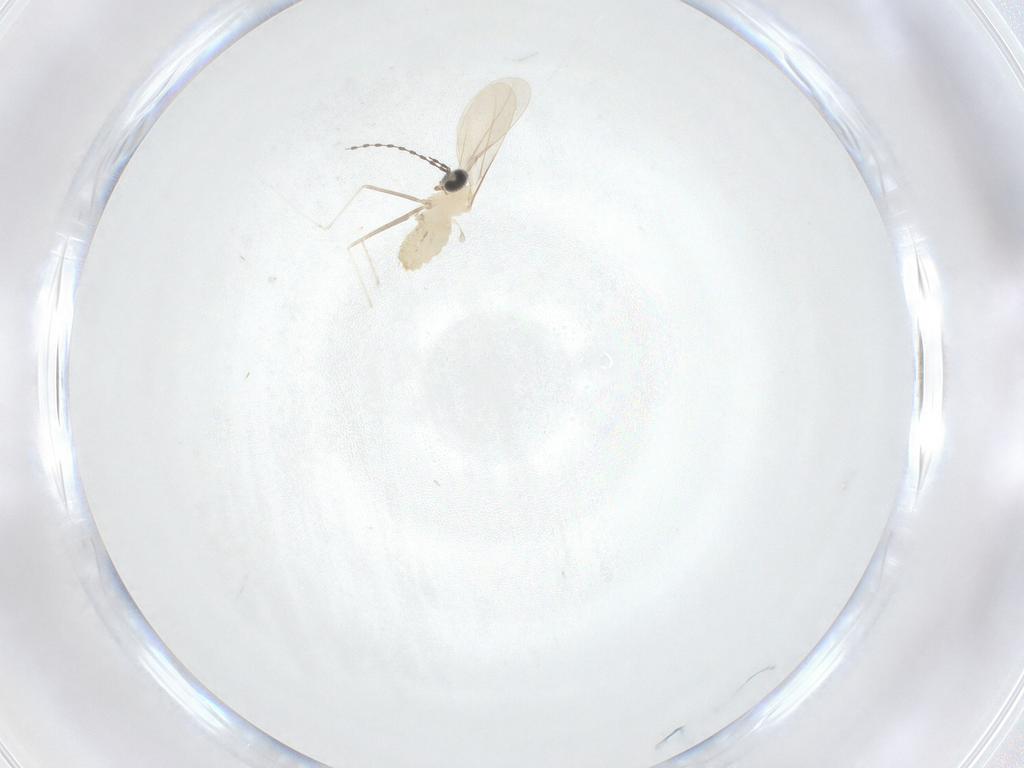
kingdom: Animalia
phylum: Arthropoda
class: Insecta
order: Diptera
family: Cecidomyiidae
